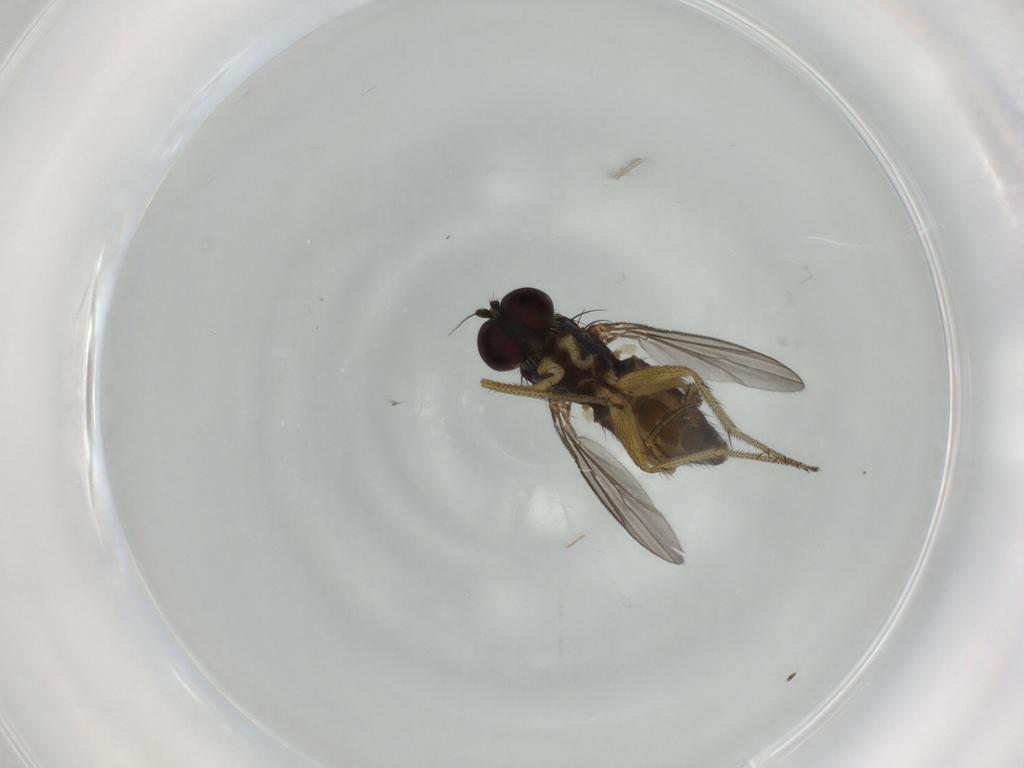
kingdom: Animalia
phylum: Arthropoda
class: Insecta
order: Diptera
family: Dolichopodidae
